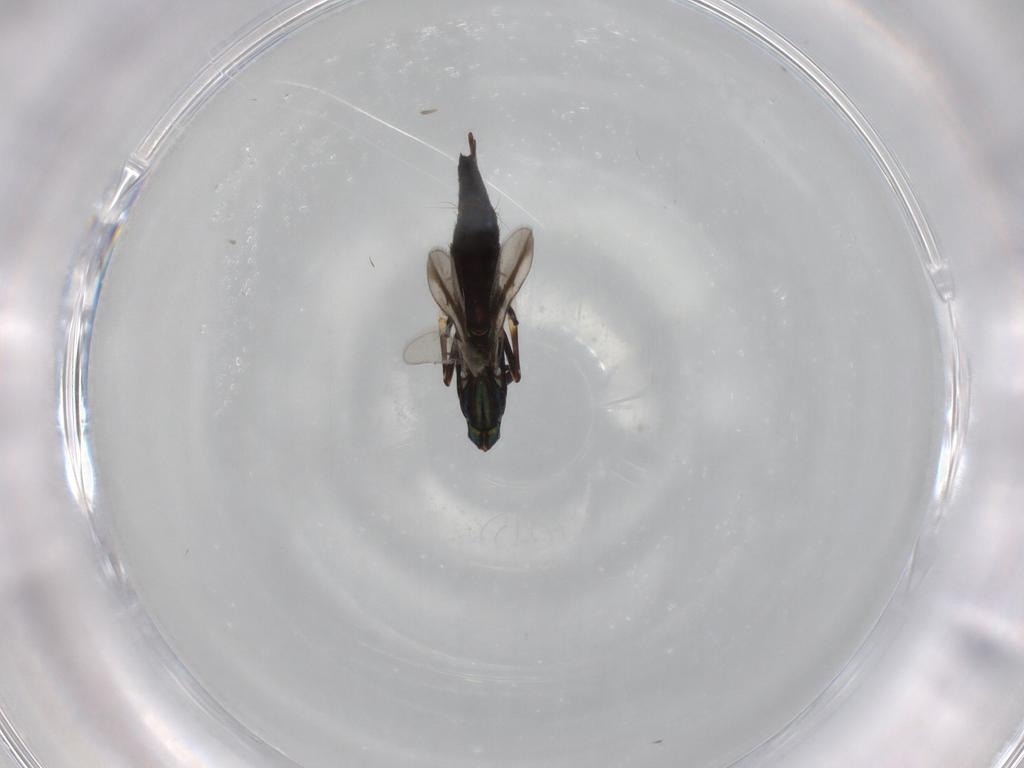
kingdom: Animalia
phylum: Arthropoda
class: Insecta
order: Hymenoptera
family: Eupelmidae
